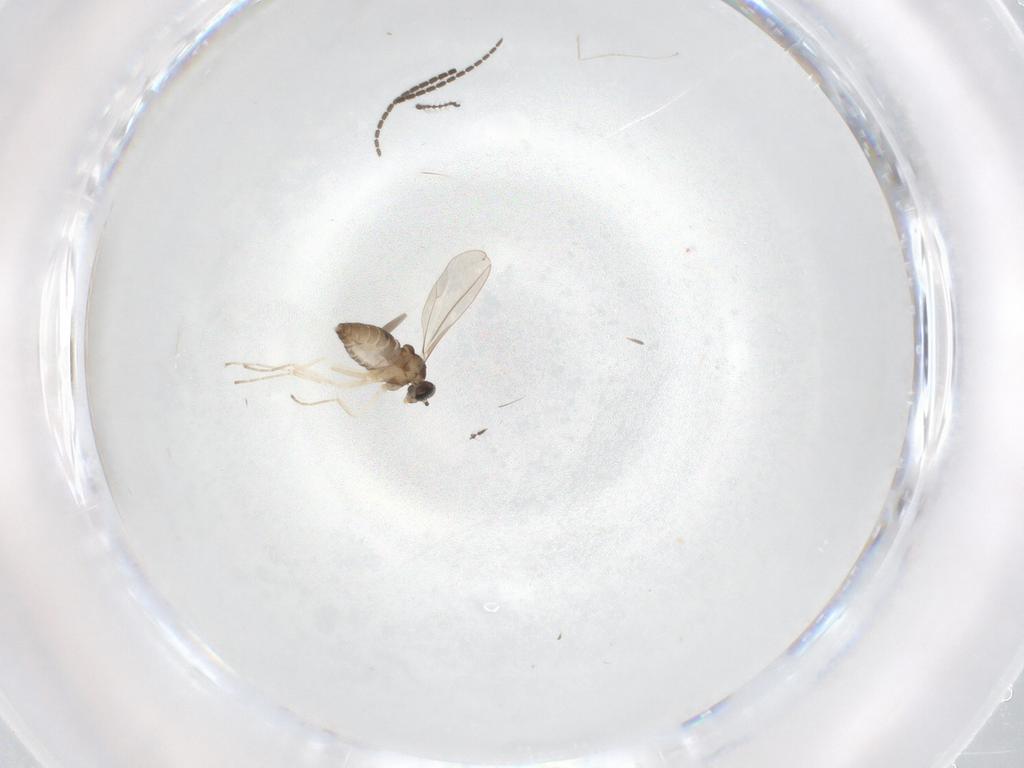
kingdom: Animalia
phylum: Arthropoda
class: Insecta
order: Diptera
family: Sciaridae
